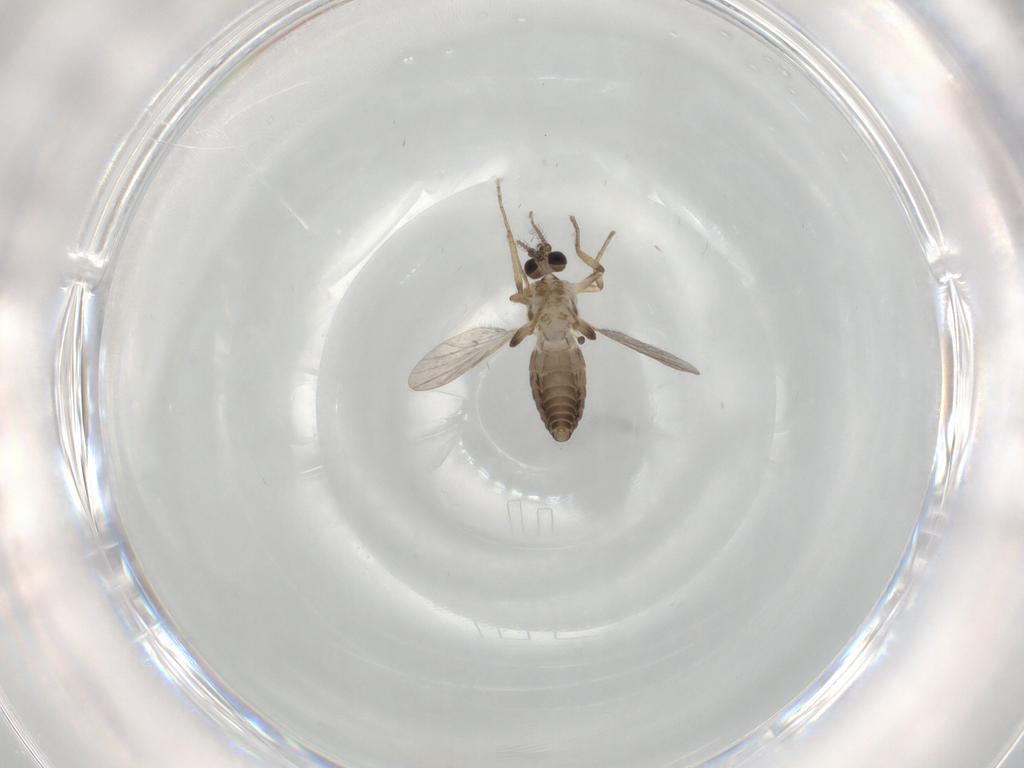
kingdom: Animalia
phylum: Arthropoda
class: Insecta
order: Diptera
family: Ceratopogonidae
